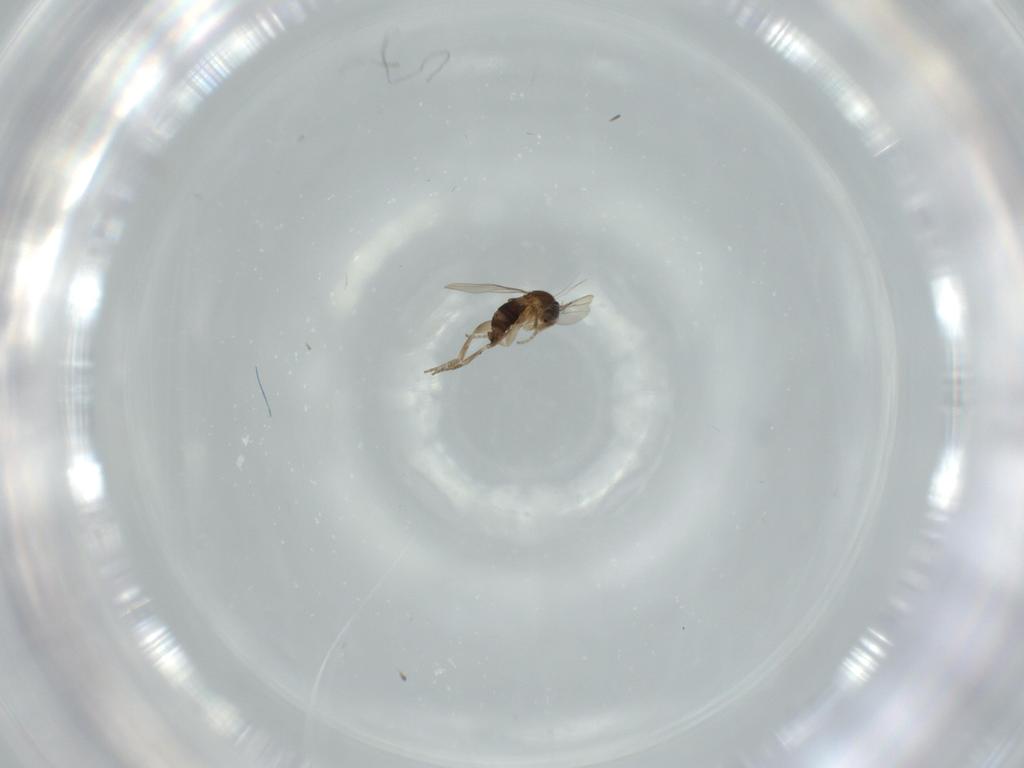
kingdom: Animalia
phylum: Arthropoda
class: Insecta
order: Diptera
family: Phoridae
